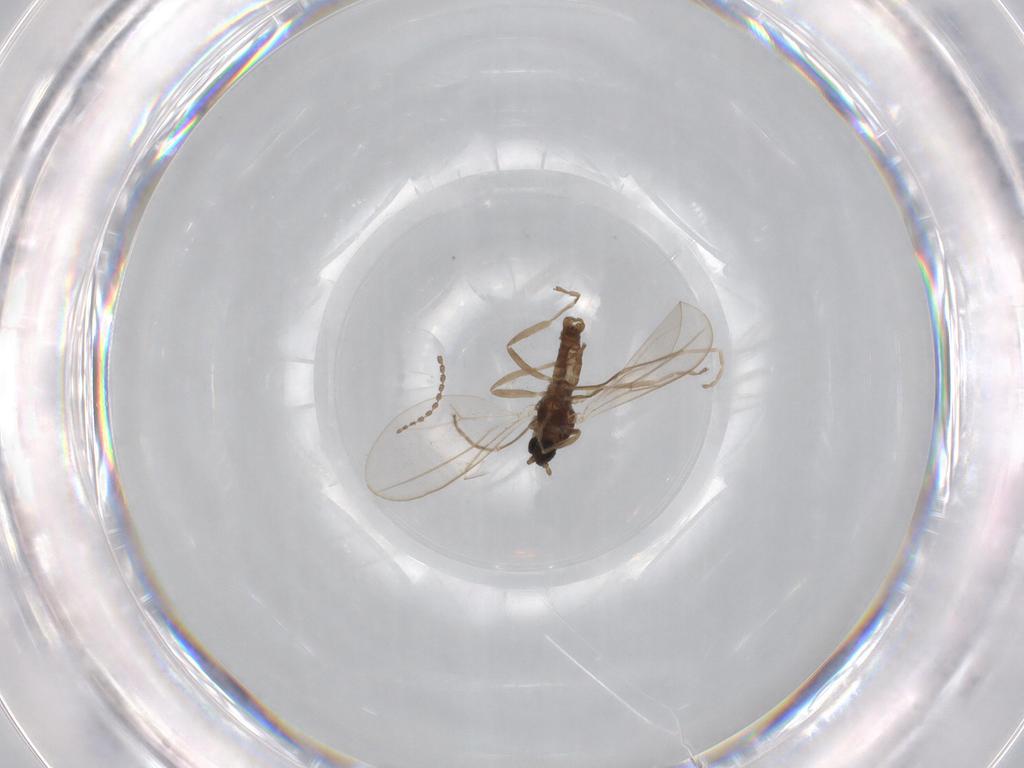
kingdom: Animalia
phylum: Arthropoda
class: Insecta
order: Diptera
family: Cecidomyiidae
